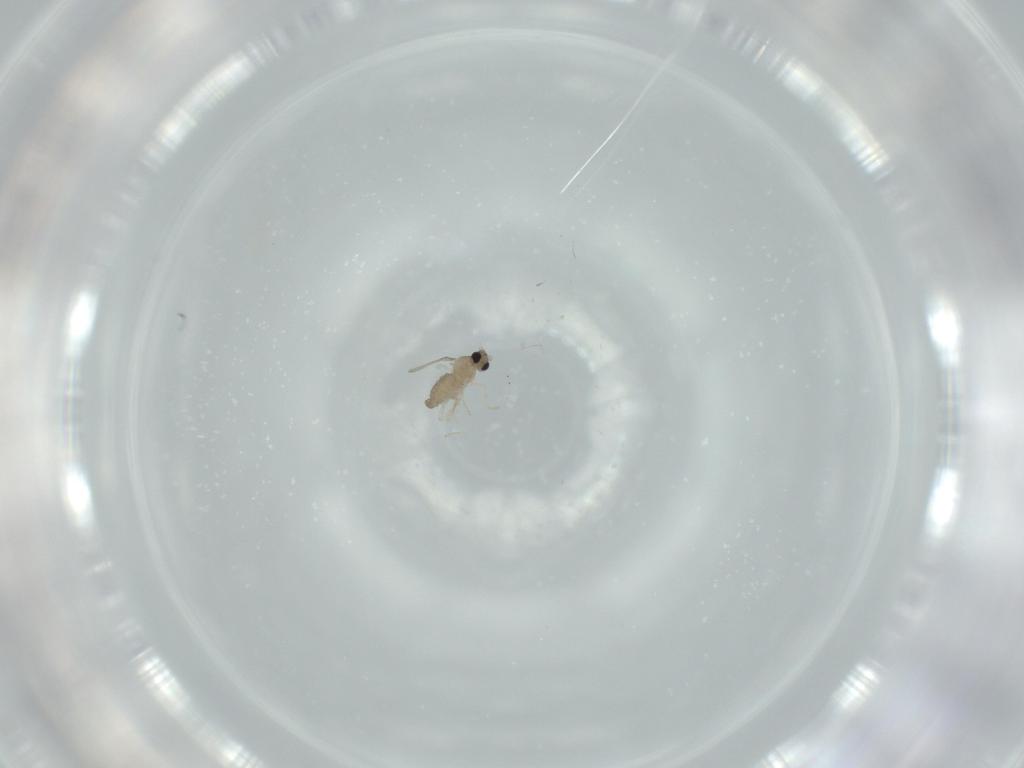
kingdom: Animalia
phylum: Arthropoda
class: Insecta
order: Diptera
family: Cecidomyiidae
